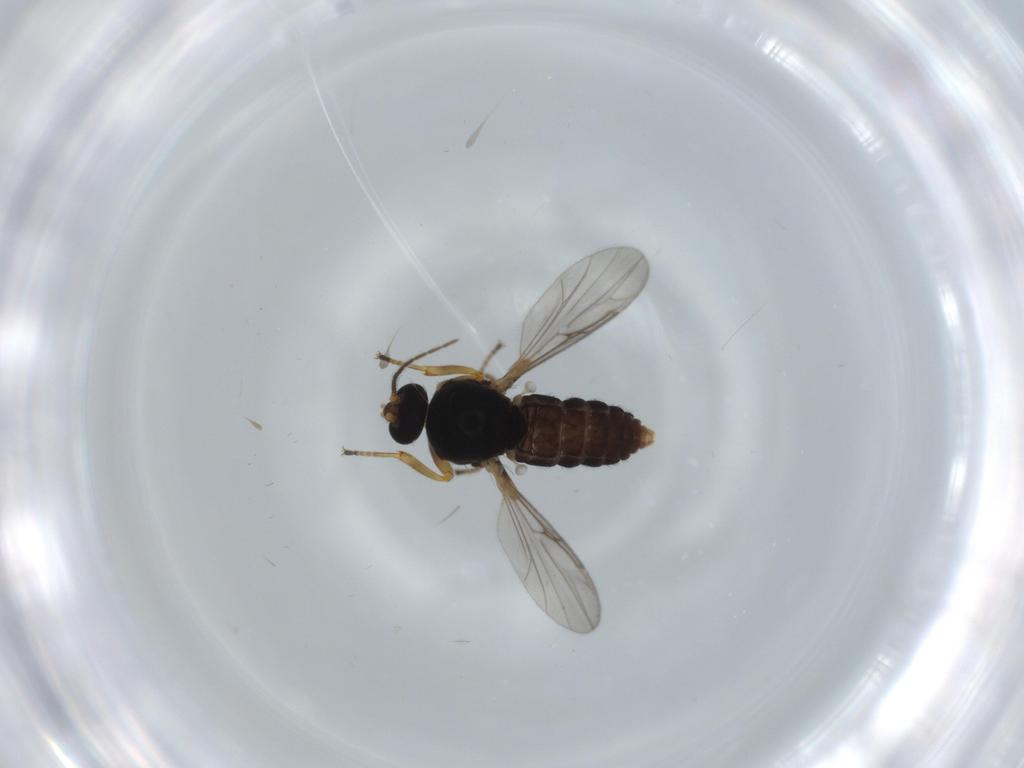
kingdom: Animalia
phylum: Arthropoda
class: Insecta
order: Diptera
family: Ceratopogonidae
